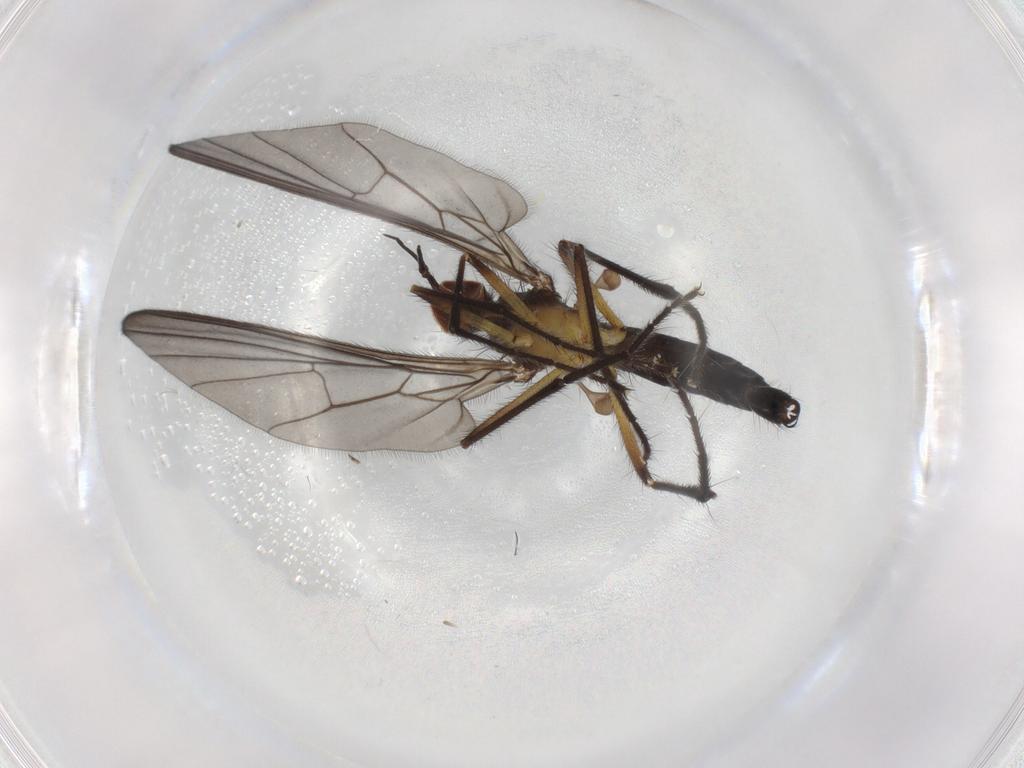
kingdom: Animalia
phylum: Arthropoda
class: Insecta
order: Diptera
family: Empididae
